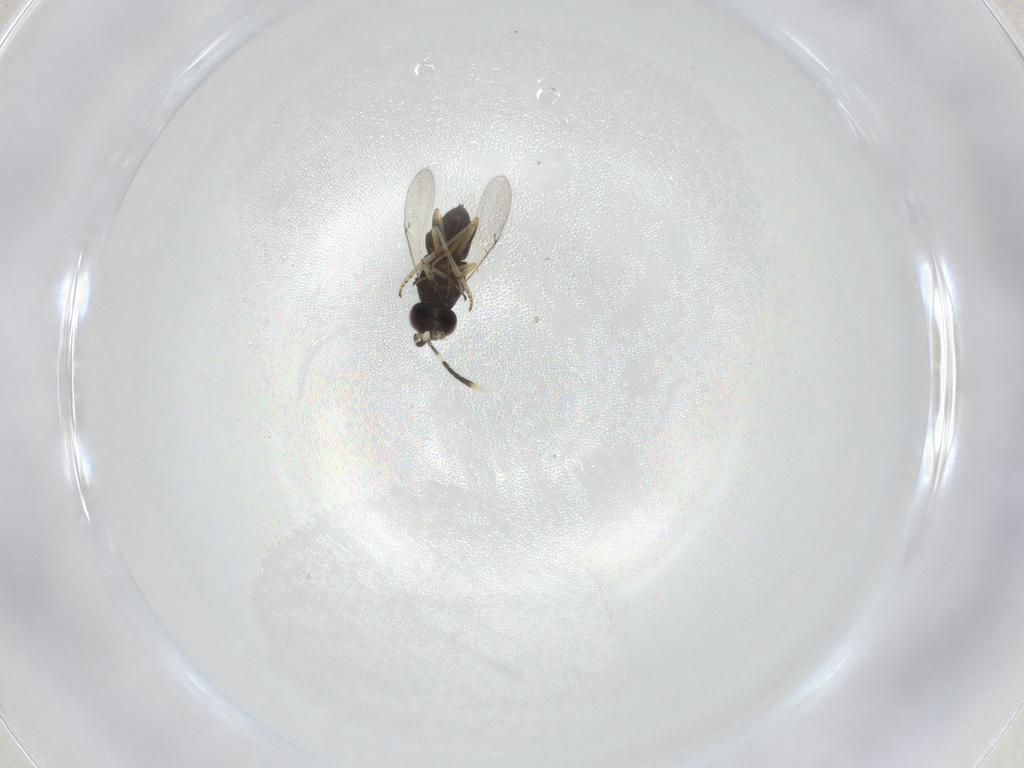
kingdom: Animalia
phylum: Arthropoda
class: Insecta
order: Hymenoptera
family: Encyrtidae
